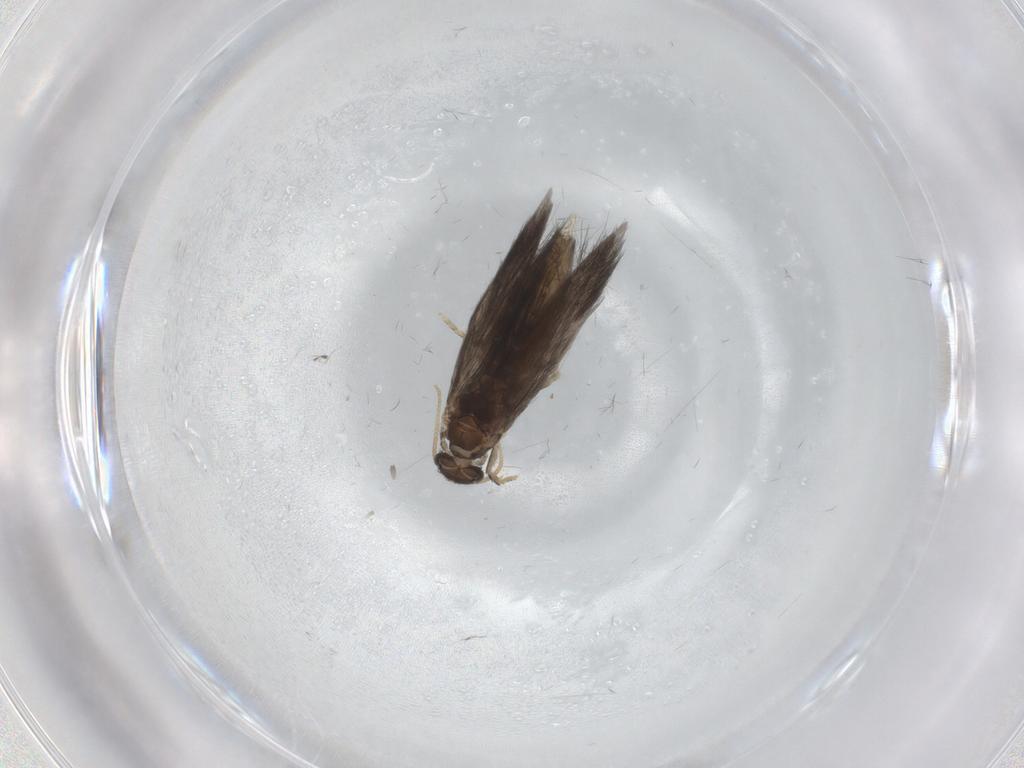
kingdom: Animalia
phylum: Arthropoda
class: Insecta
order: Trichoptera
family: Hydroptilidae
